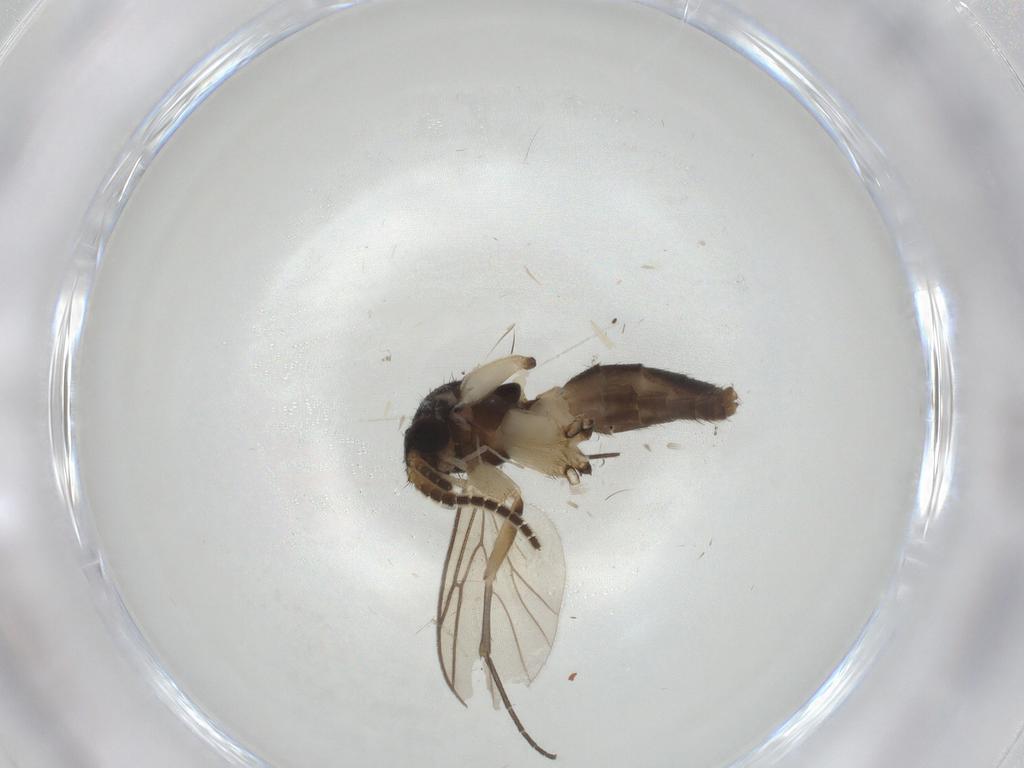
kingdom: Animalia
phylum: Arthropoda
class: Insecta
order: Diptera
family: Mycetophilidae
